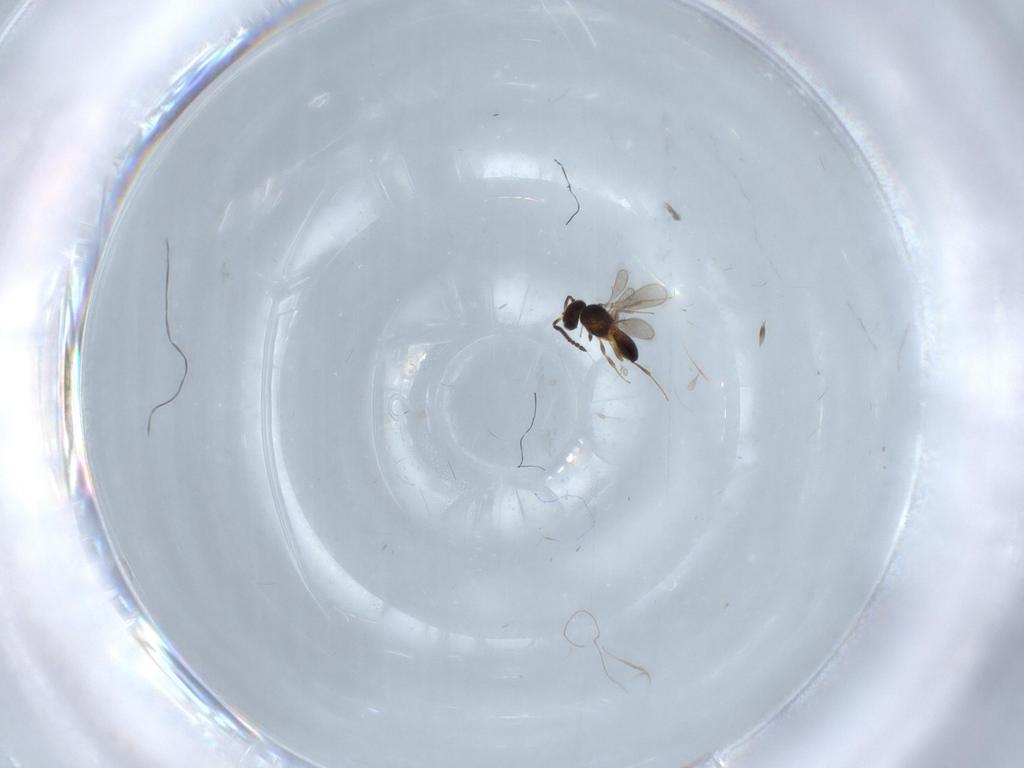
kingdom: Animalia
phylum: Arthropoda
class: Insecta
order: Hymenoptera
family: Scelionidae
